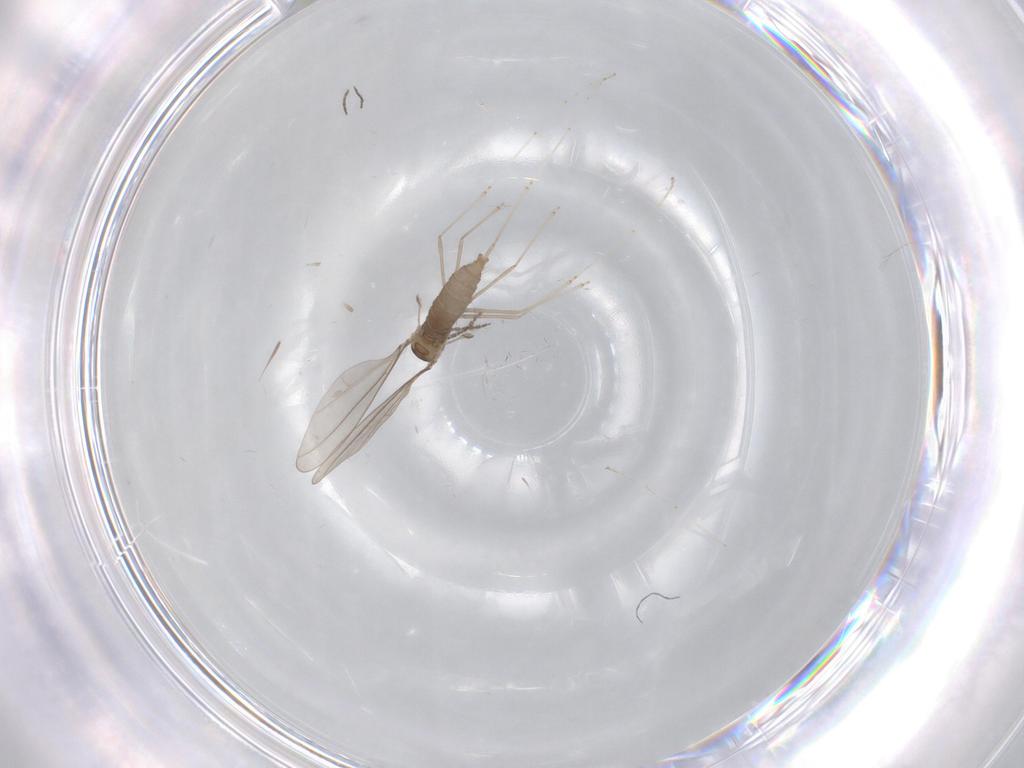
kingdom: Animalia
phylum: Arthropoda
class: Insecta
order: Diptera
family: Cecidomyiidae
